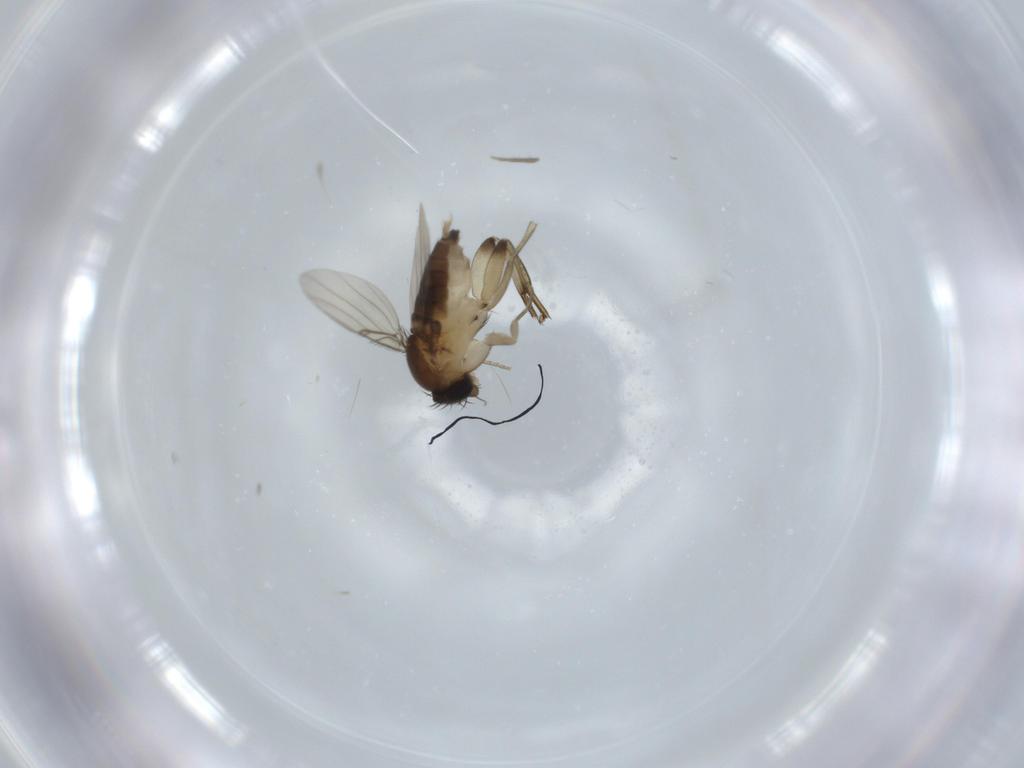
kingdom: Animalia
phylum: Arthropoda
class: Insecta
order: Diptera
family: Phoridae
